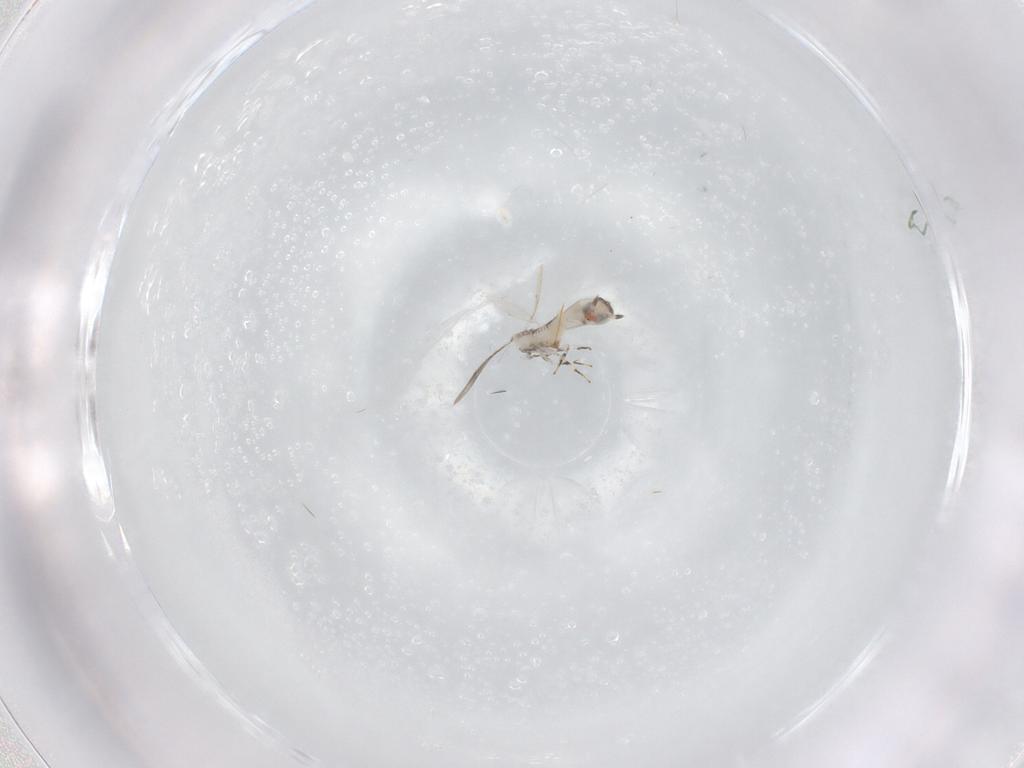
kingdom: Animalia
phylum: Arthropoda
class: Insecta
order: Hymenoptera
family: Eulophidae
